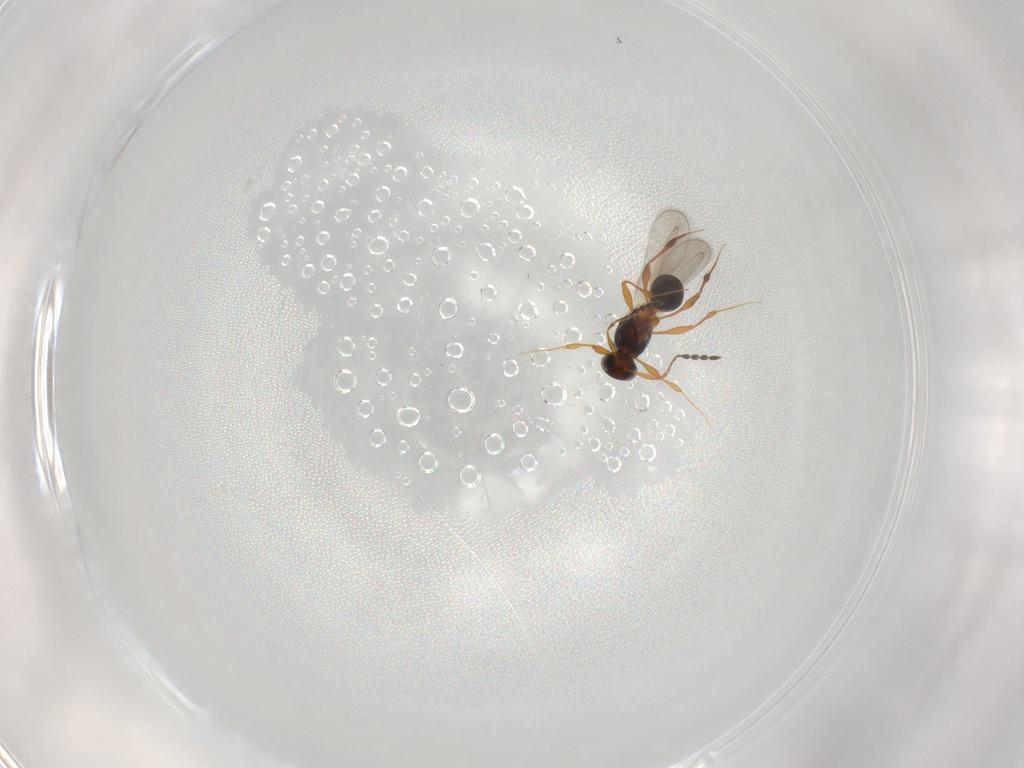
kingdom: Animalia
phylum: Arthropoda
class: Insecta
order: Hymenoptera
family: Platygastridae
